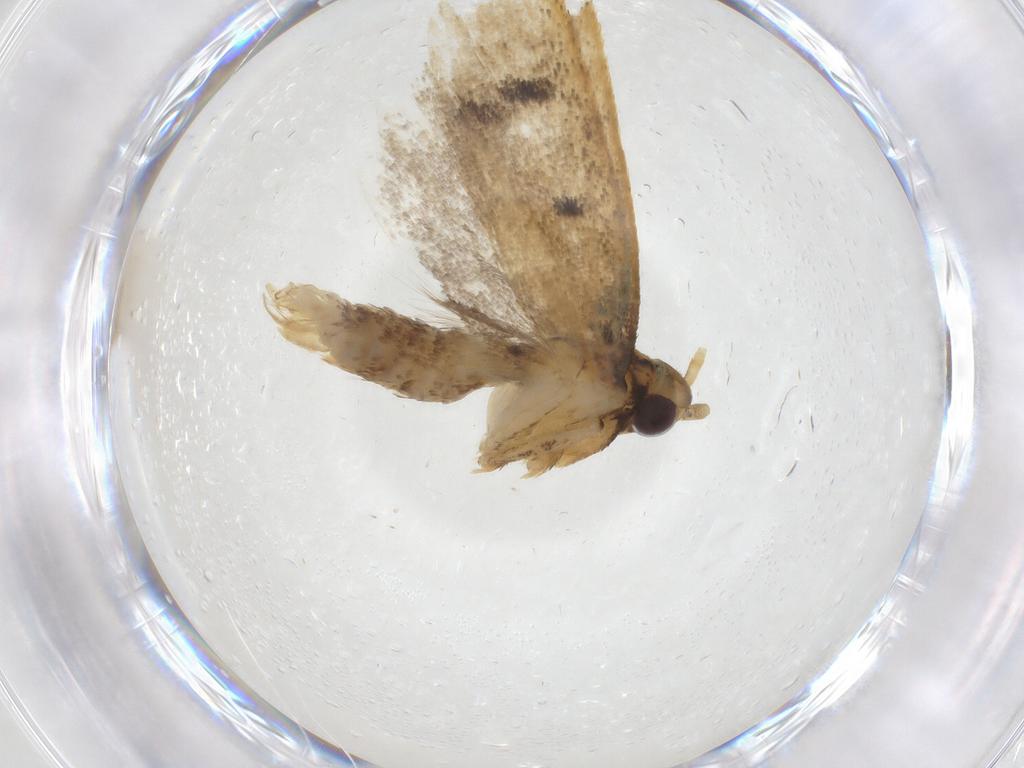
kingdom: Animalia
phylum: Arthropoda
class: Insecta
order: Lepidoptera
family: Lecithoceridae
